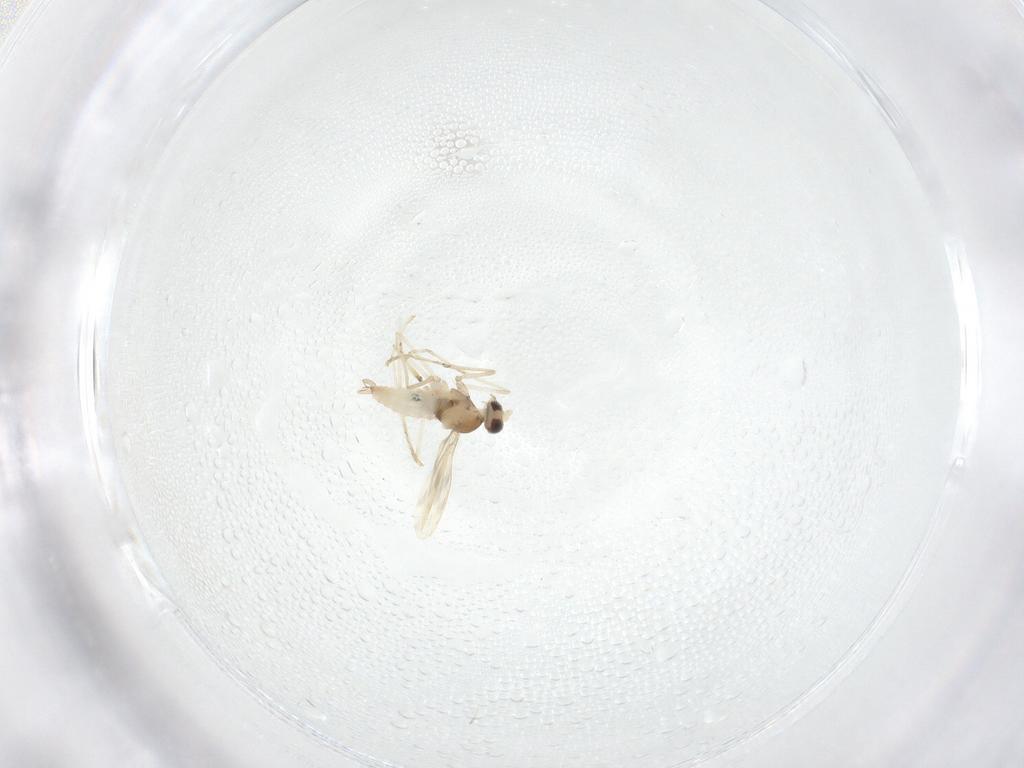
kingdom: Animalia
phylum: Arthropoda
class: Insecta
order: Diptera
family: Cecidomyiidae
